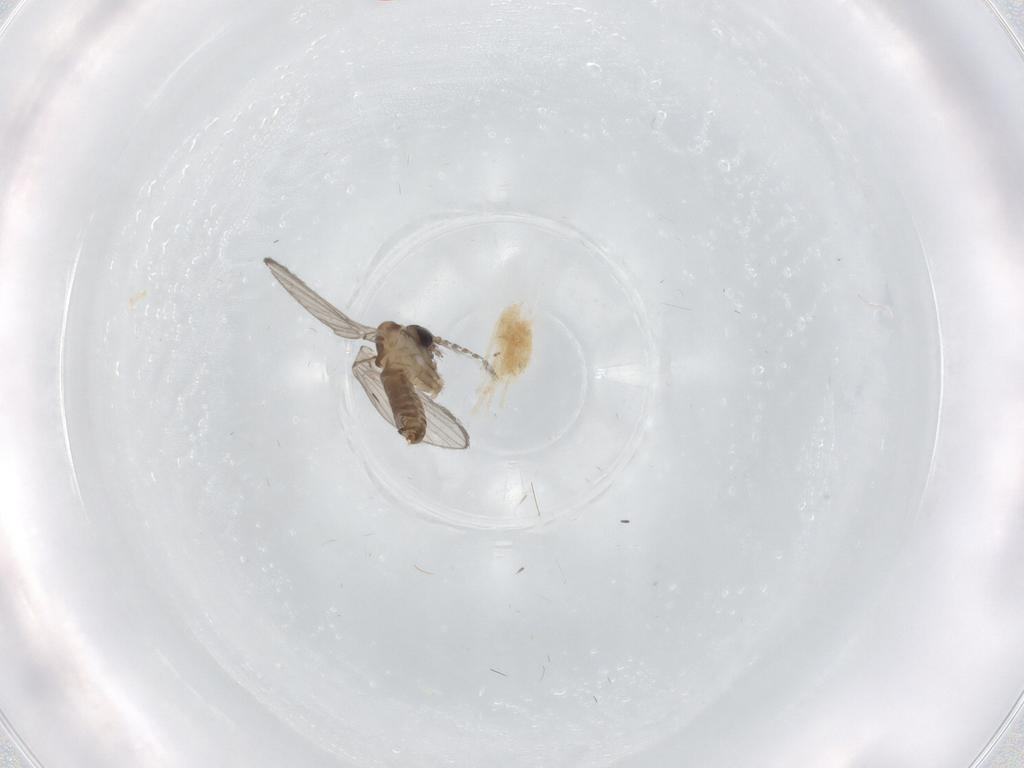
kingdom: Animalia
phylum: Arthropoda
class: Insecta
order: Diptera
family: Psychodidae
